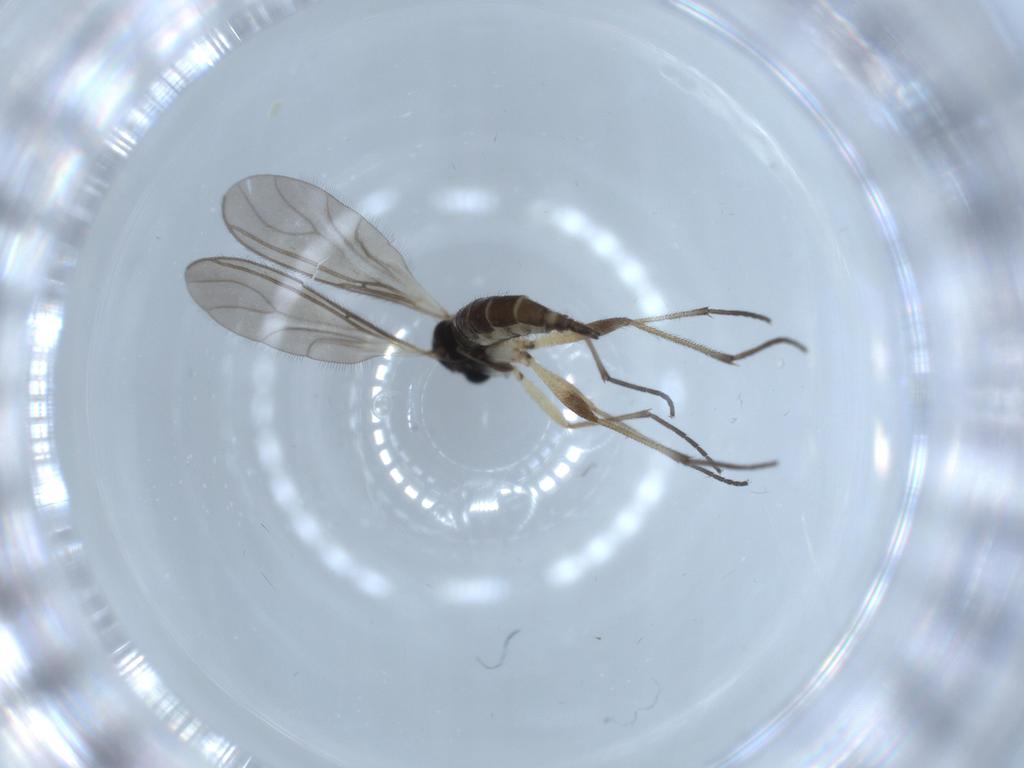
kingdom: Animalia
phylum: Arthropoda
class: Insecta
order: Diptera
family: Sciaridae
